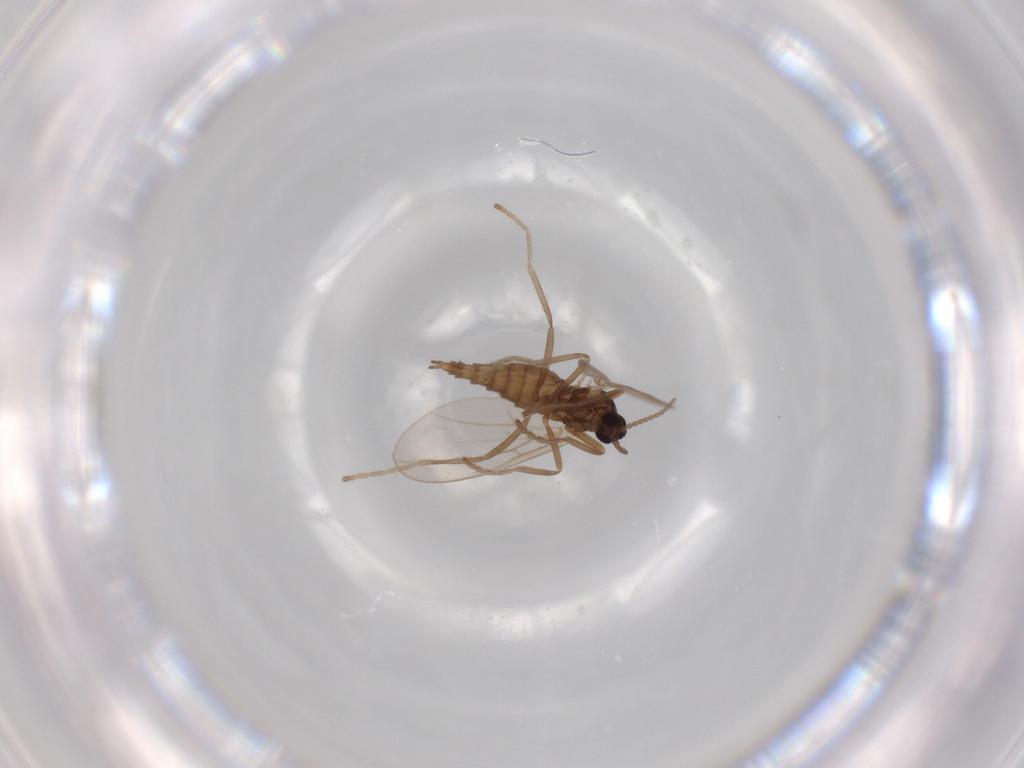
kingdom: Animalia
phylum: Arthropoda
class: Insecta
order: Diptera
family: Cecidomyiidae
